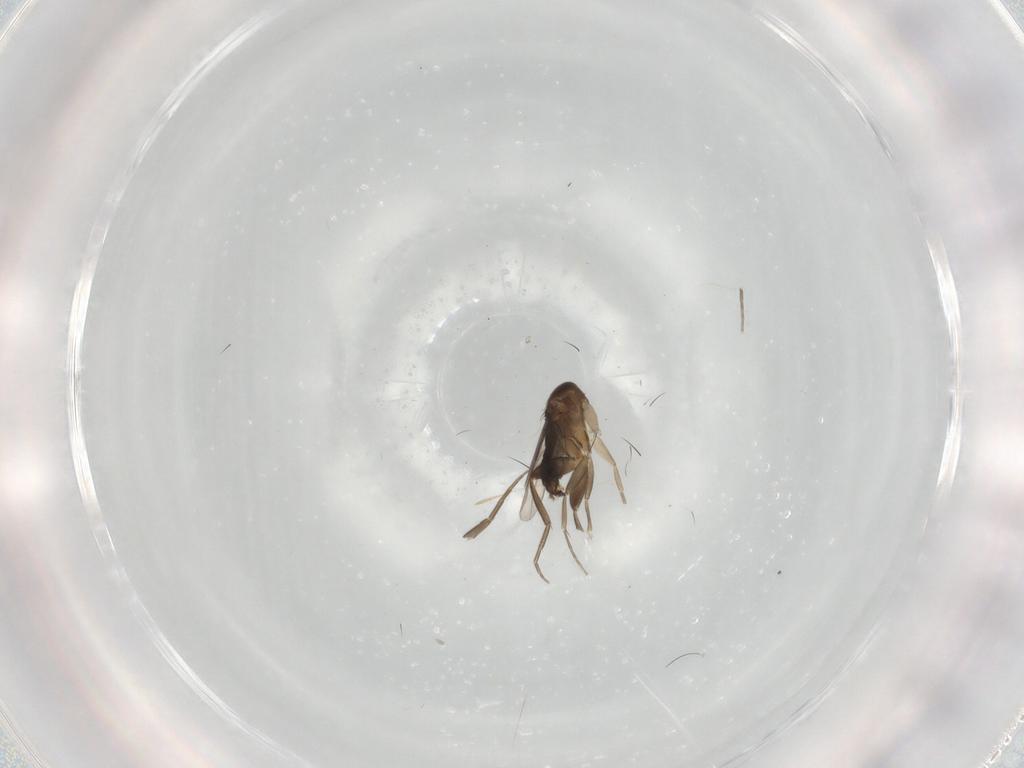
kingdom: Animalia
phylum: Arthropoda
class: Insecta
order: Diptera
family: Phoridae
